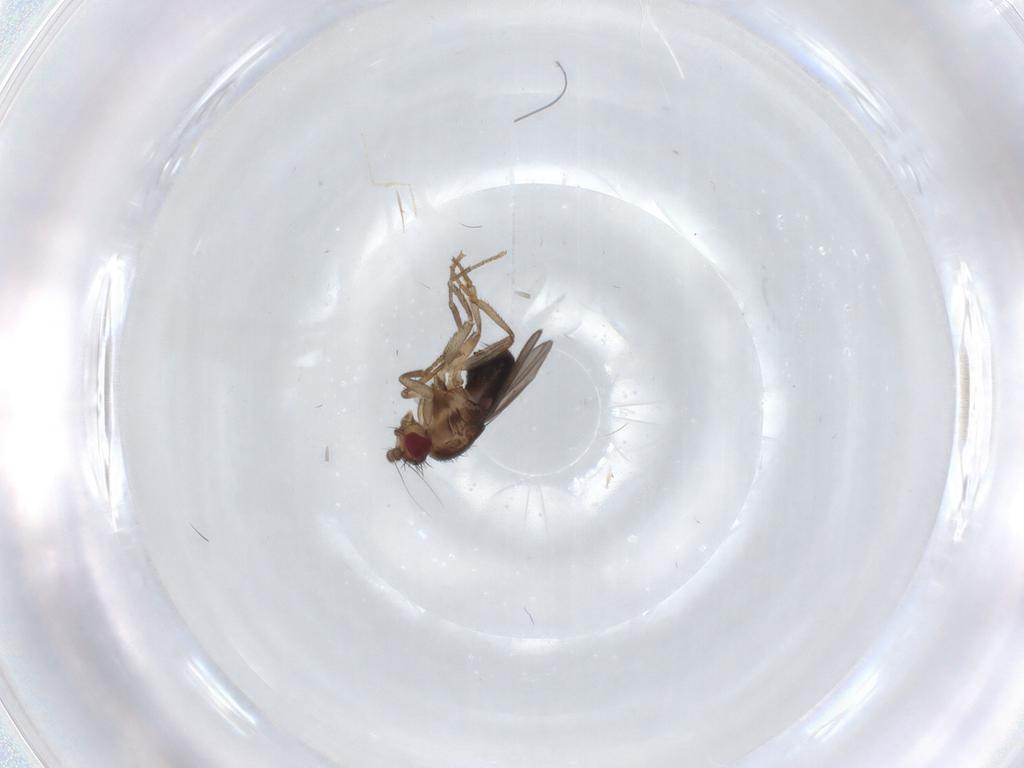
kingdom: Animalia
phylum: Arthropoda
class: Insecta
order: Diptera
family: Sphaeroceridae
